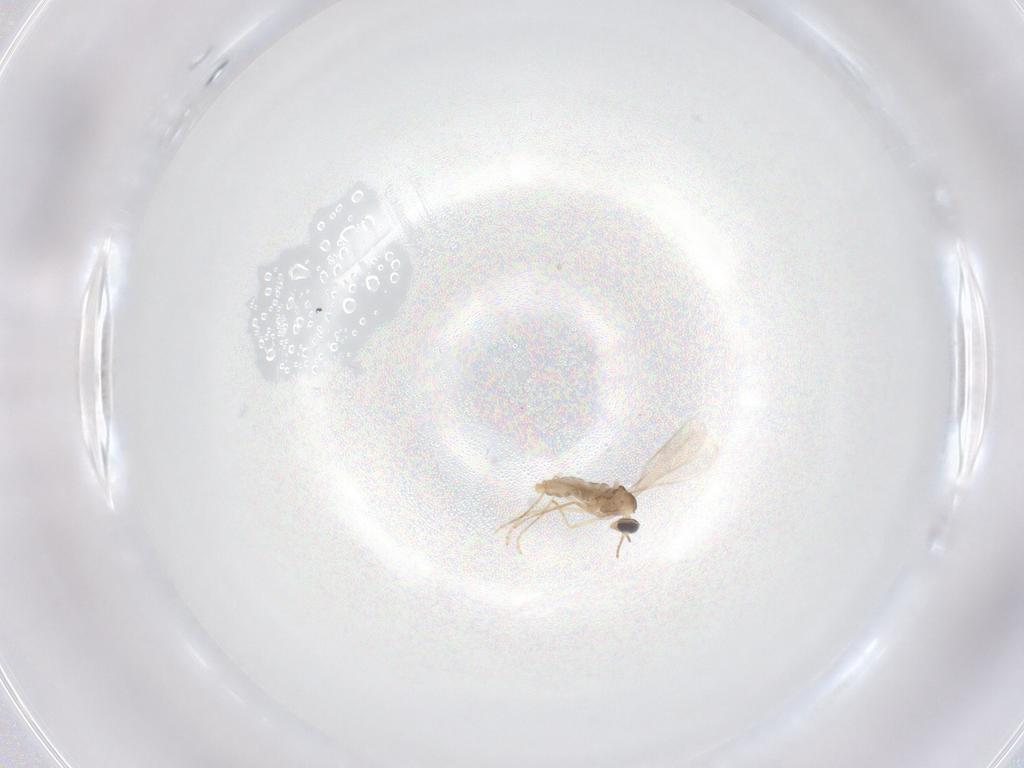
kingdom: Animalia
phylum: Arthropoda
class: Insecta
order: Diptera
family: Cecidomyiidae
